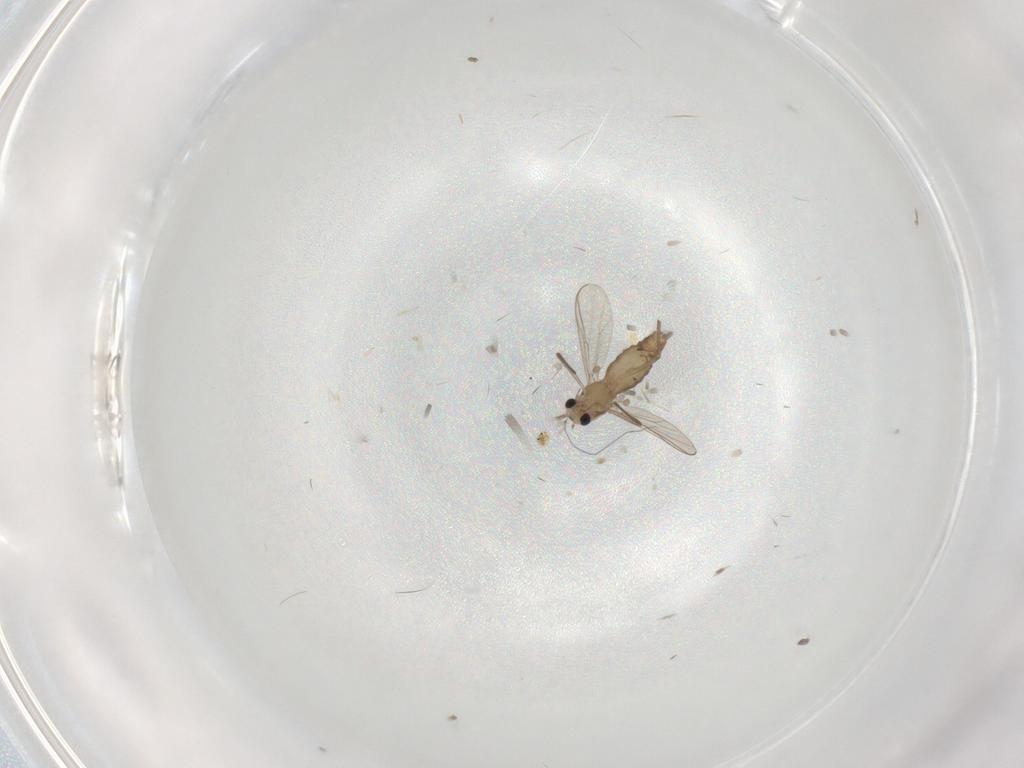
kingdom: Animalia
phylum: Arthropoda
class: Insecta
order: Diptera
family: Chironomidae
